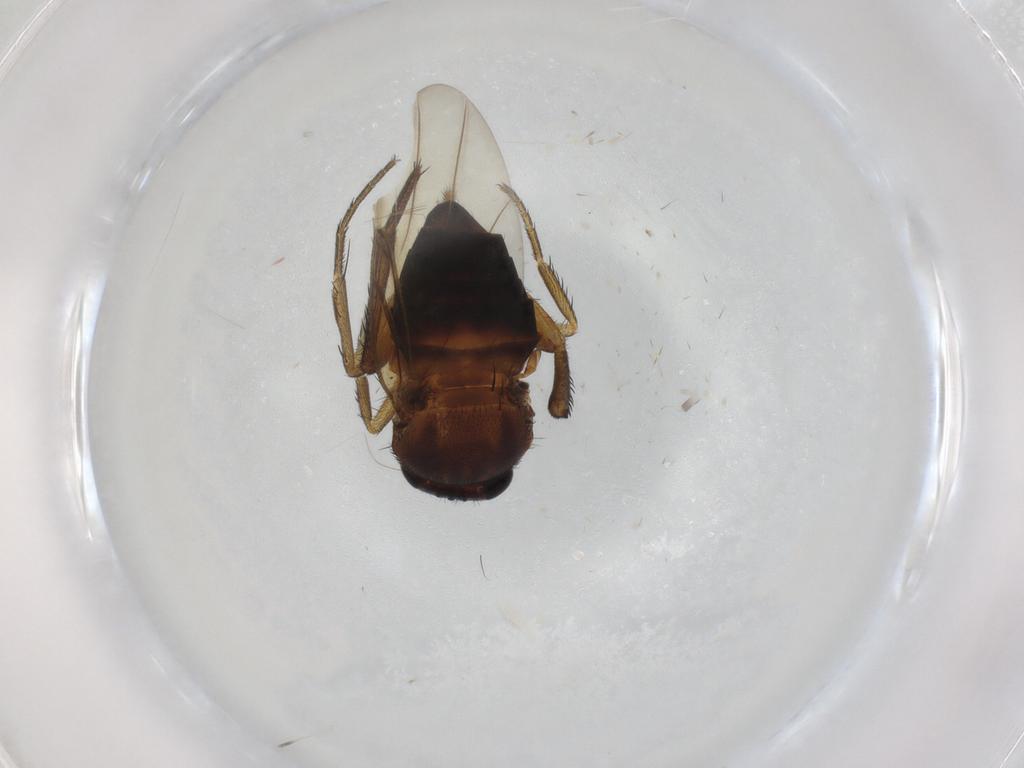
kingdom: Animalia
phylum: Arthropoda
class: Insecta
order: Diptera
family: Phoridae
